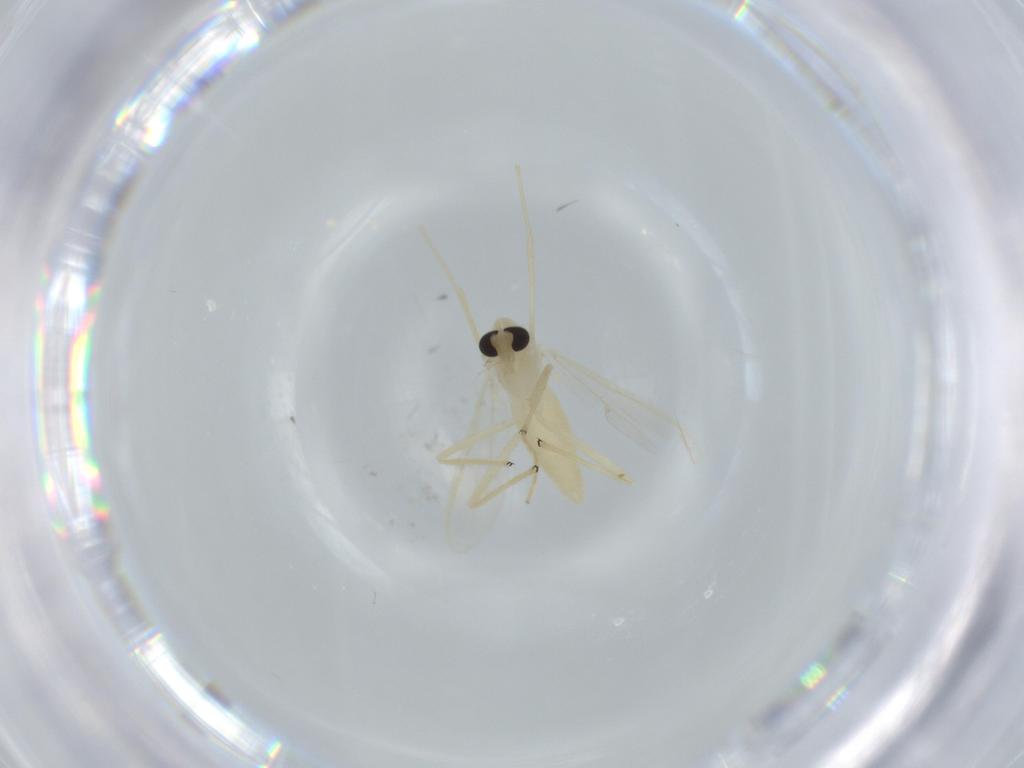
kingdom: Animalia
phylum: Arthropoda
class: Insecta
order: Diptera
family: Chironomidae
